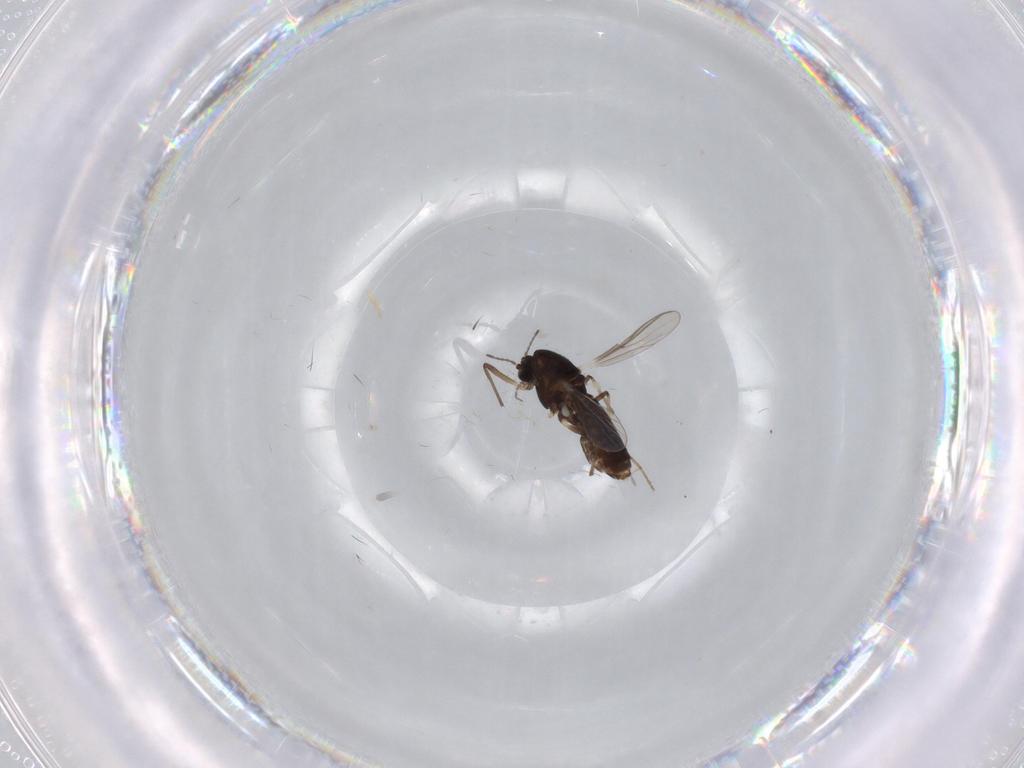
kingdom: Animalia
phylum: Arthropoda
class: Insecta
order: Diptera
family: Chironomidae
